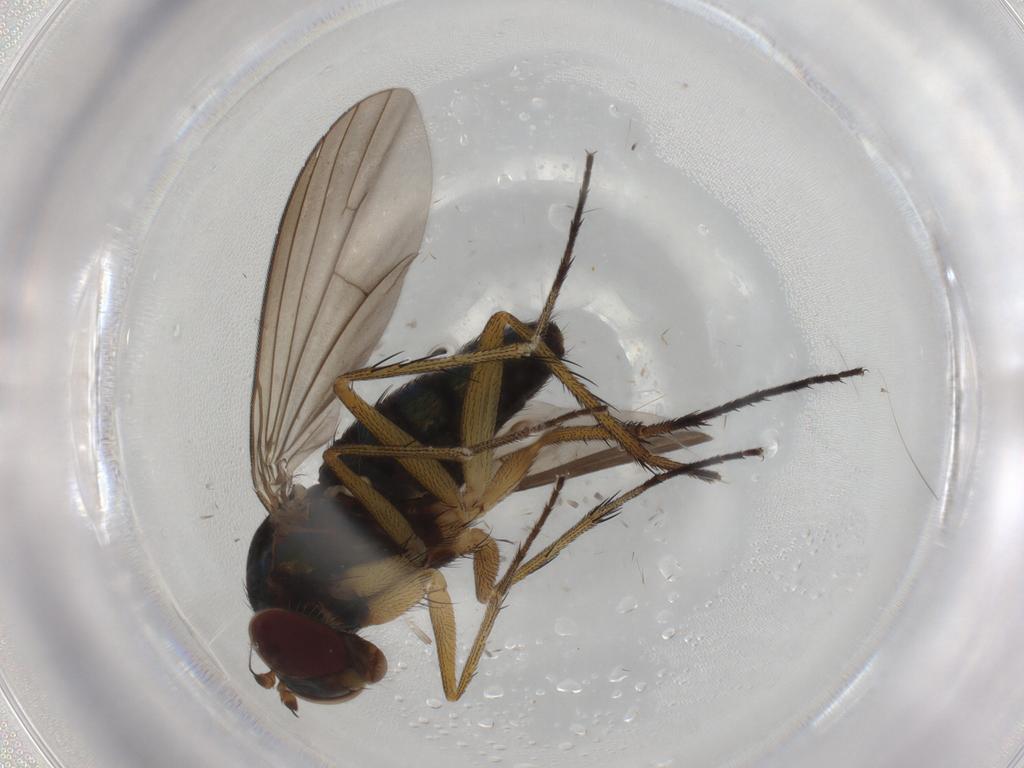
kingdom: Animalia
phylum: Arthropoda
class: Insecta
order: Diptera
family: Dolichopodidae
